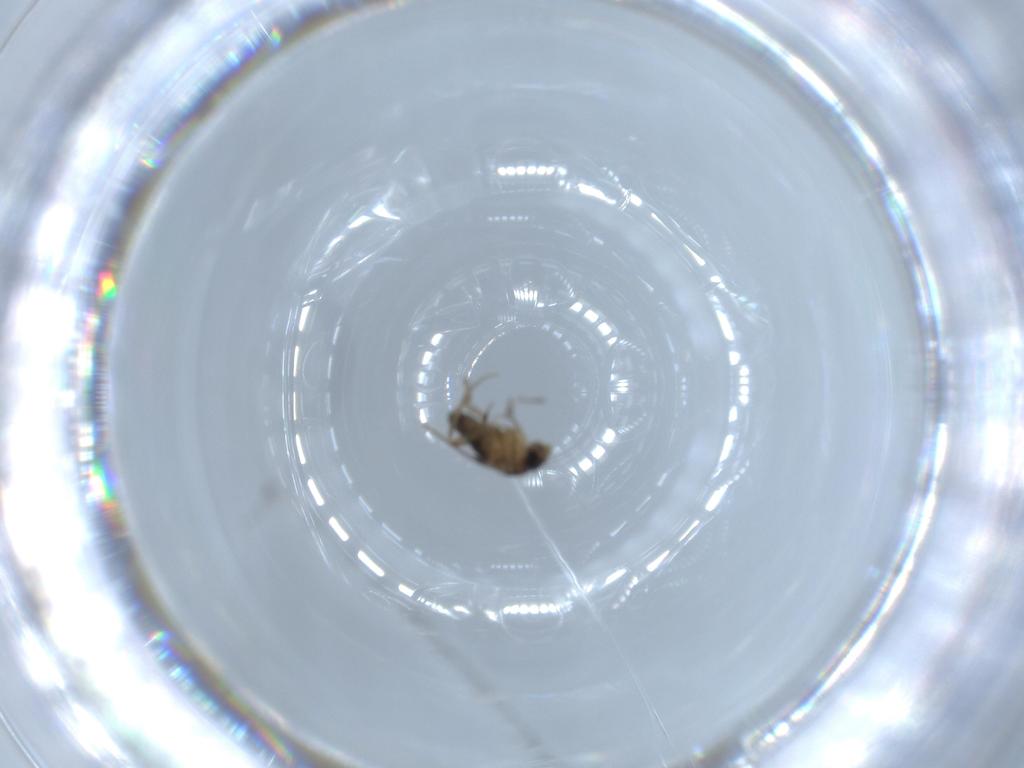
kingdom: Animalia
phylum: Arthropoda
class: Insecta
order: Diptera
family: Phoridae
